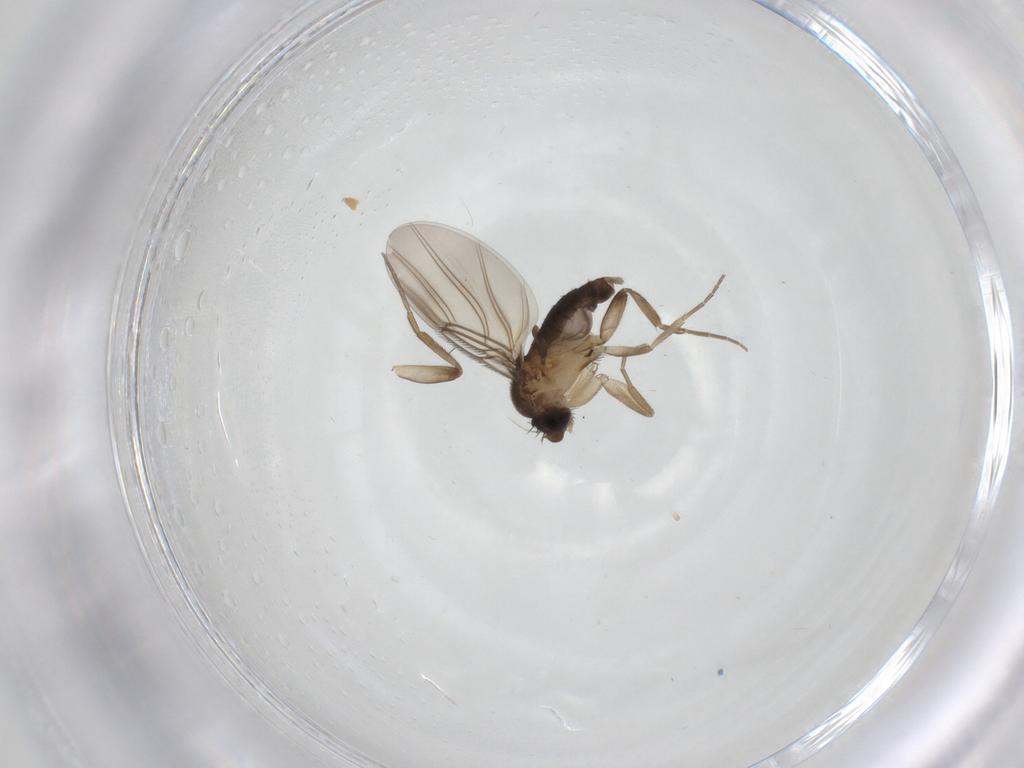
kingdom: Animalia
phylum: Arthropoda
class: Insecta
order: Diptera
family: Phoridae
